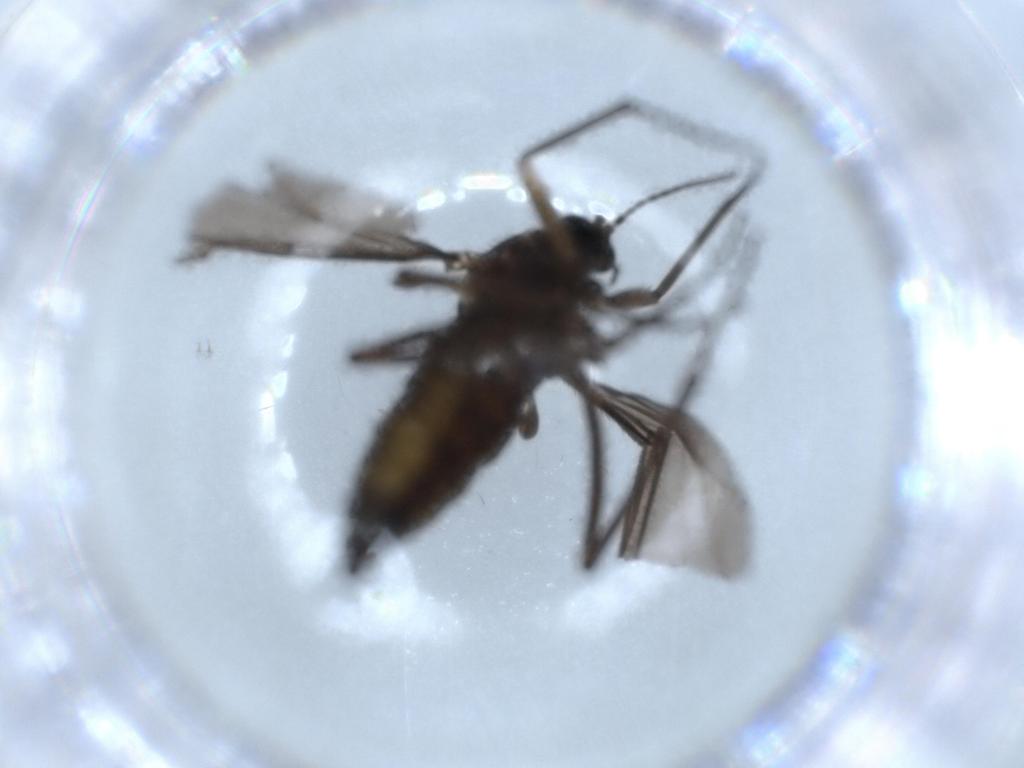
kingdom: Animalia
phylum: Arthropoda
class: Insecta
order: Diptera
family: Sciaridae
